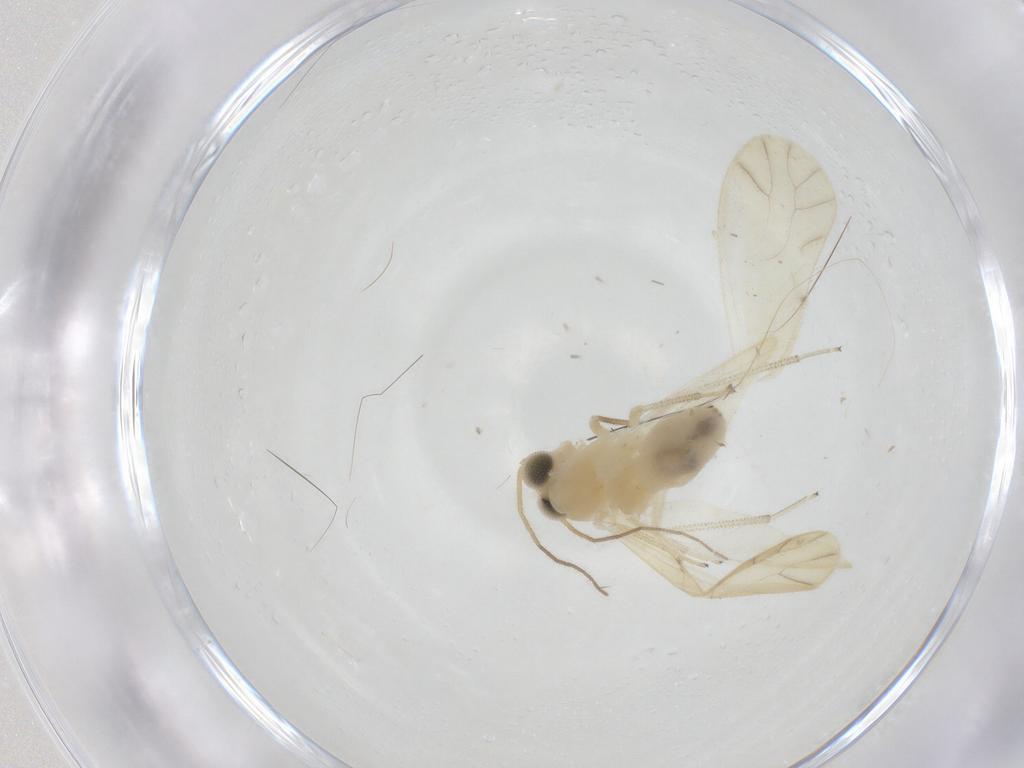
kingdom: Animalia
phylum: Arthropoda
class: Insecta
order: Psocodea
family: Caeciliusidae
